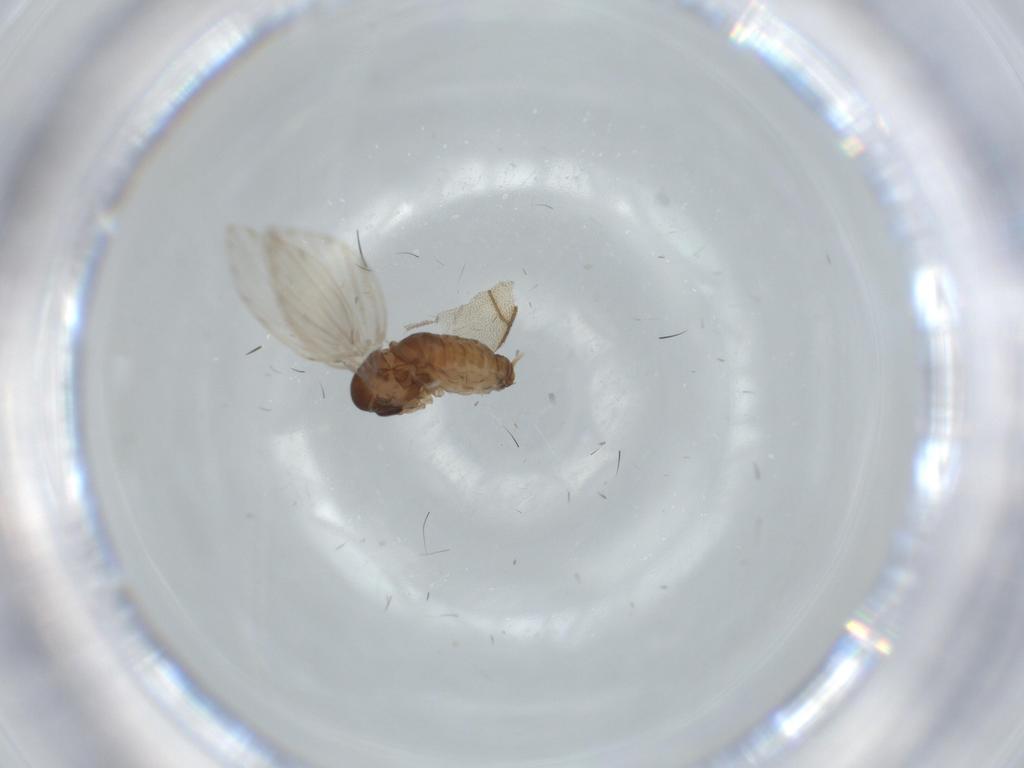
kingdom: Animalia
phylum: Arthropoda
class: Insecta
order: Diptera
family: Psychodidae
